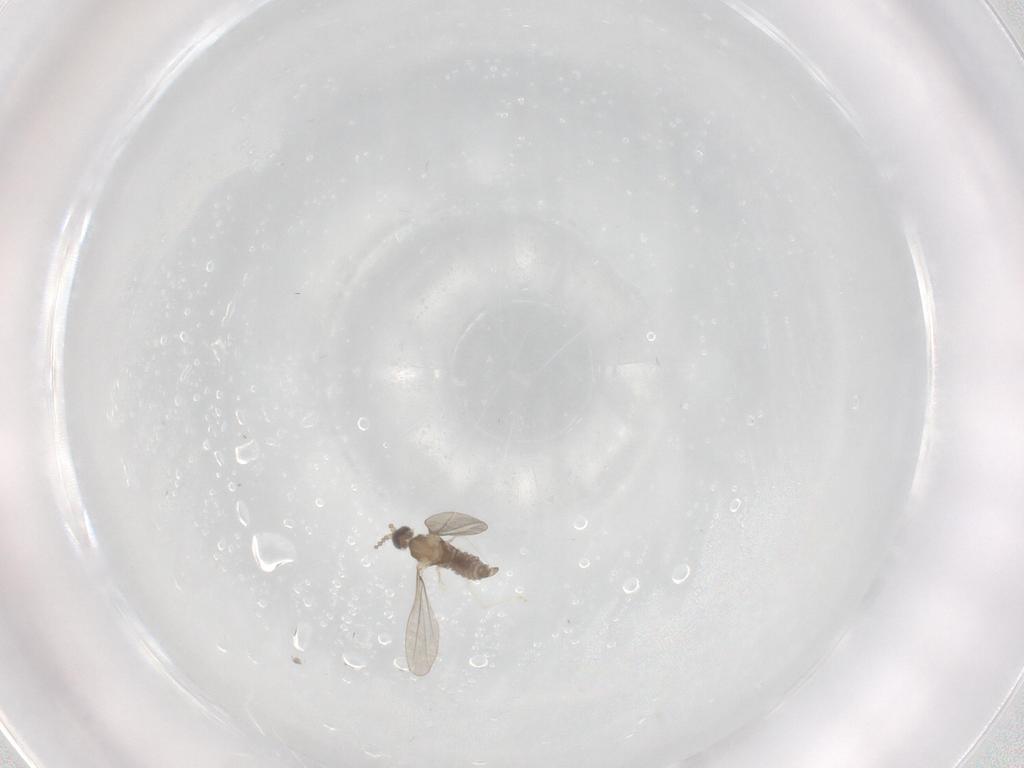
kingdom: Animalia
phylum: Arthropoda
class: Insecta
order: Diptera
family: Cecidomyiidae
